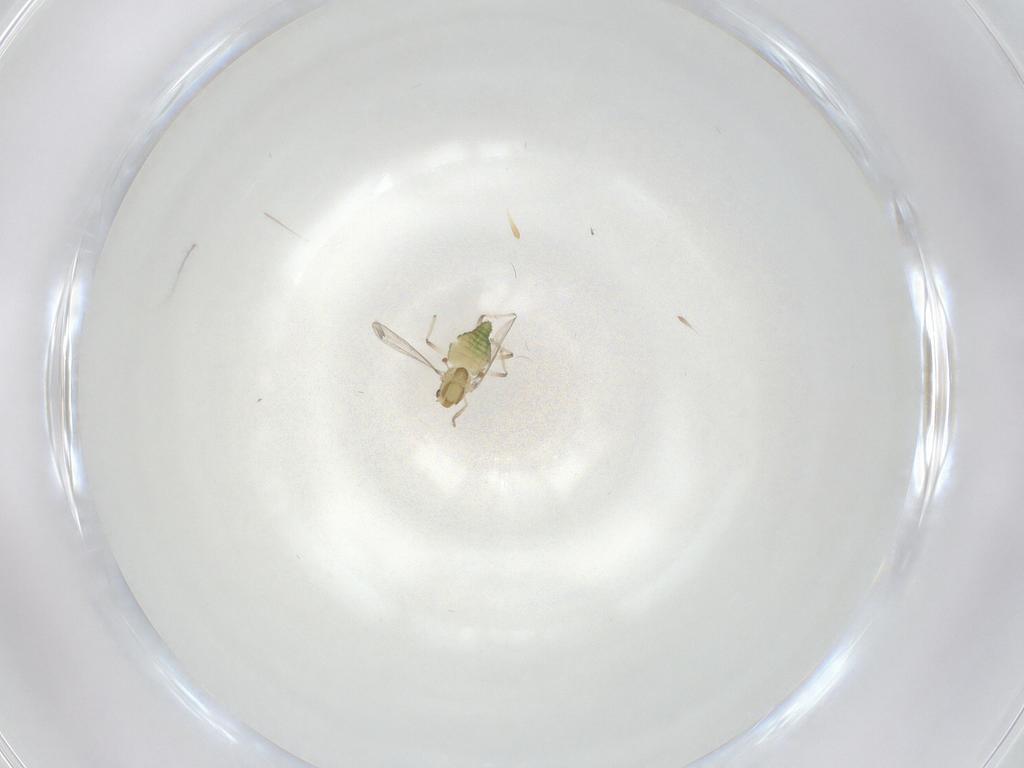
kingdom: Animalia
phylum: Arthropoda
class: Insecta
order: Diptera
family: Chironomidae
